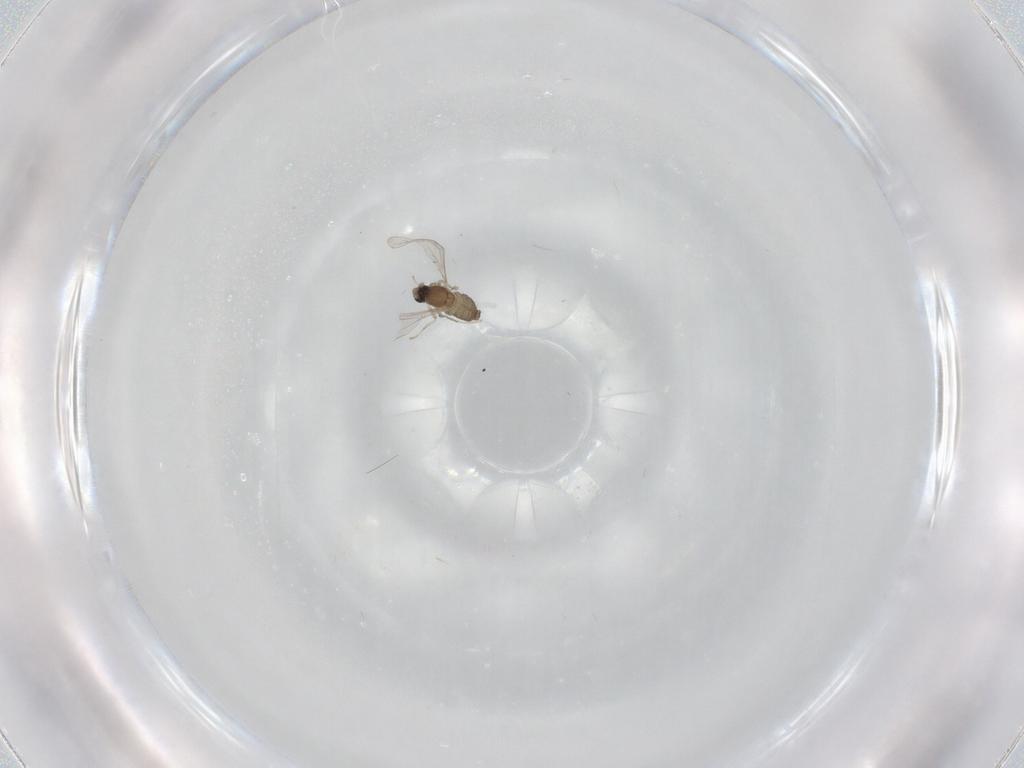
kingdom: Animalia
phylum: Arthropoda
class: Insecta
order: Diptera
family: Cecidomyiidae
